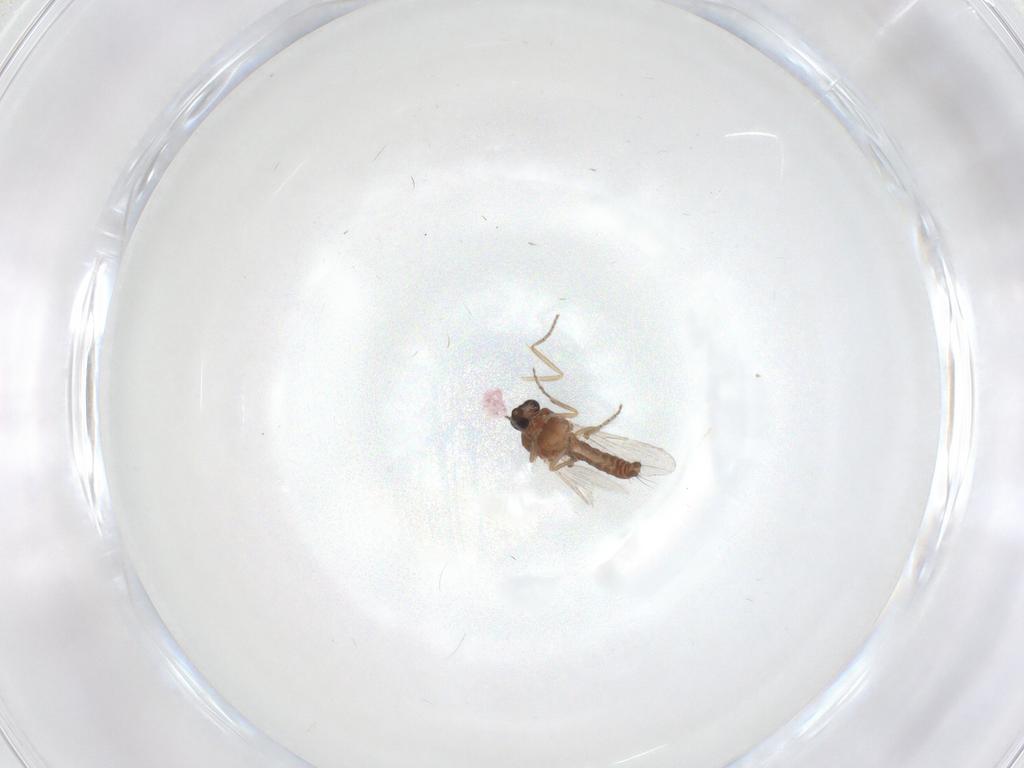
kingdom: Animalia
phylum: Arthropoda
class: Insecta
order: Diptera
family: Ceratopogonidae
